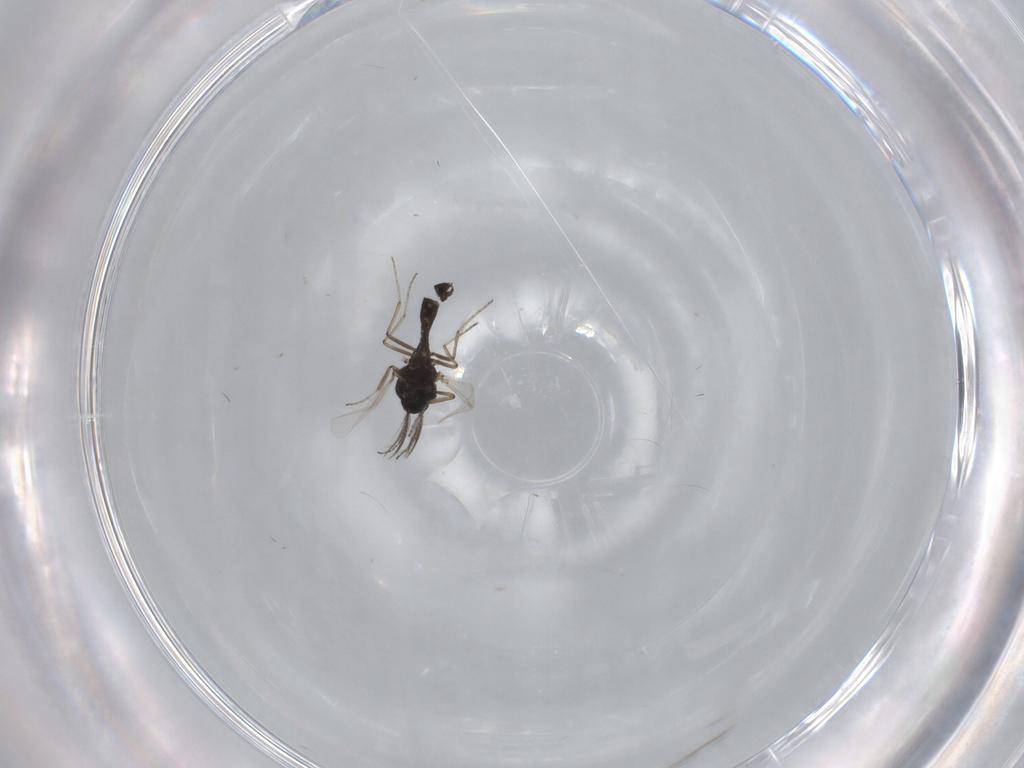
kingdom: Animalia
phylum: Arthropoda
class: Insecta
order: Diptera
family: Ceratopogonidae
